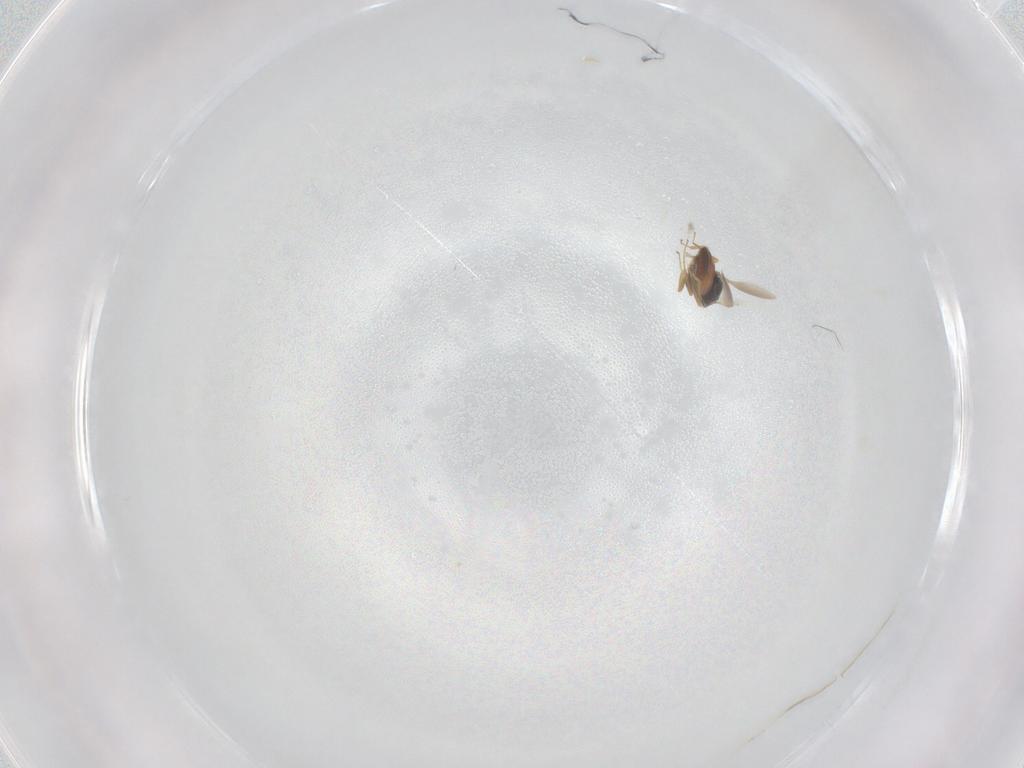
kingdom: Animalia
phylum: Arthropoda
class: Insecta
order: Hymenoptera
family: Scelionidae
